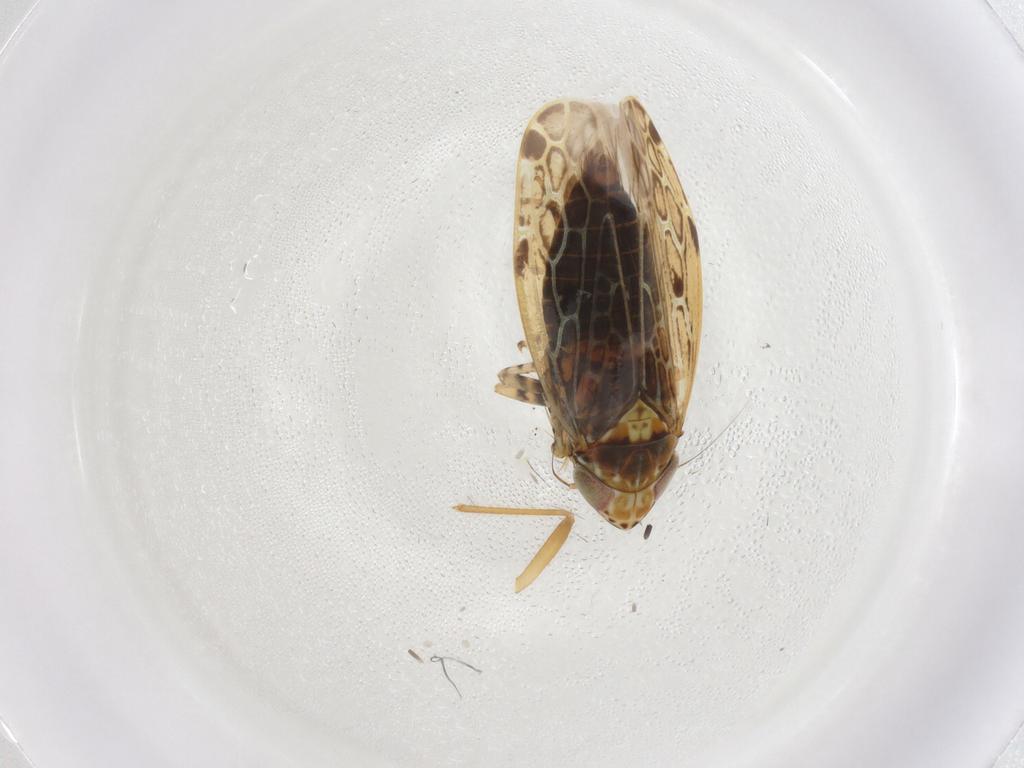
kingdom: Animalia
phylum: Arthropoda
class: Insecta
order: Hemiptera
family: Cicadellidae
